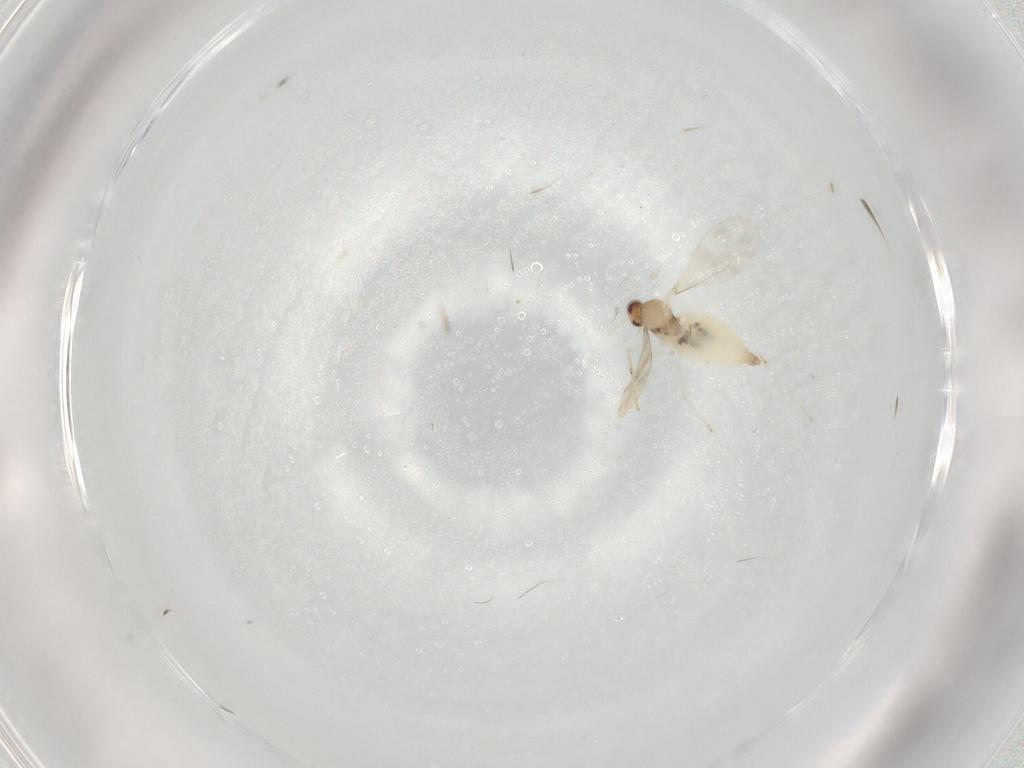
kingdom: Animalia
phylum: Arthropoda
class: Insecta
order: Diptera
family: Cecidomyiidae
